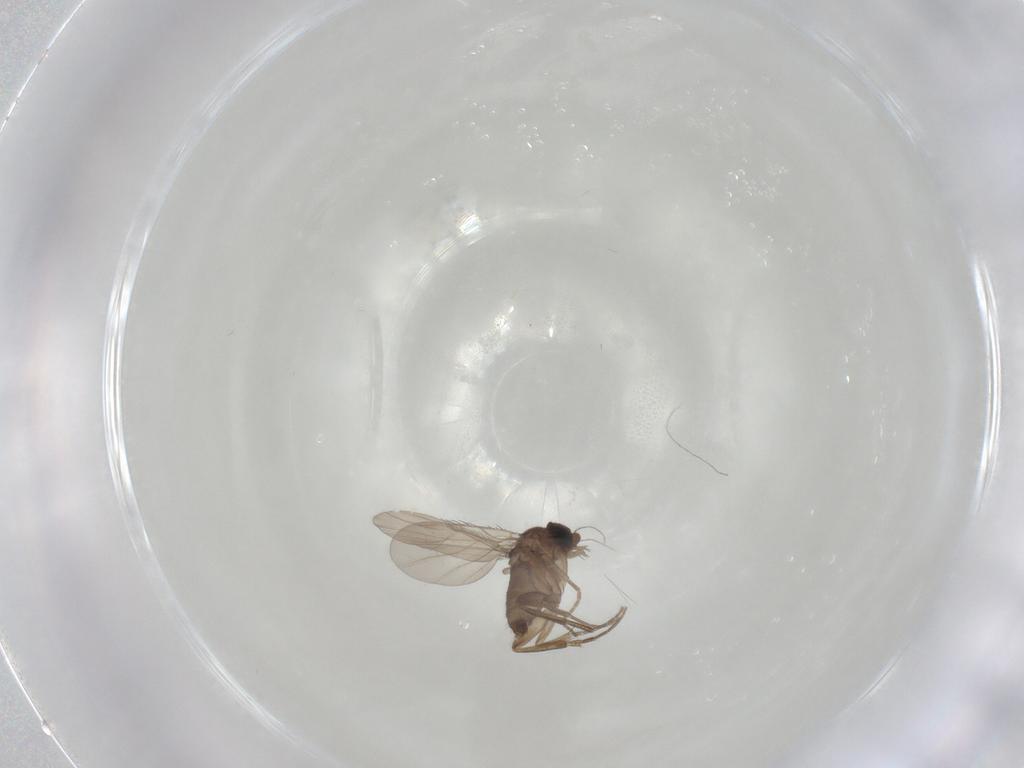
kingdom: Animalia
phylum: Arthropoda
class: Insecta
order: Diptera
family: Phoridae
